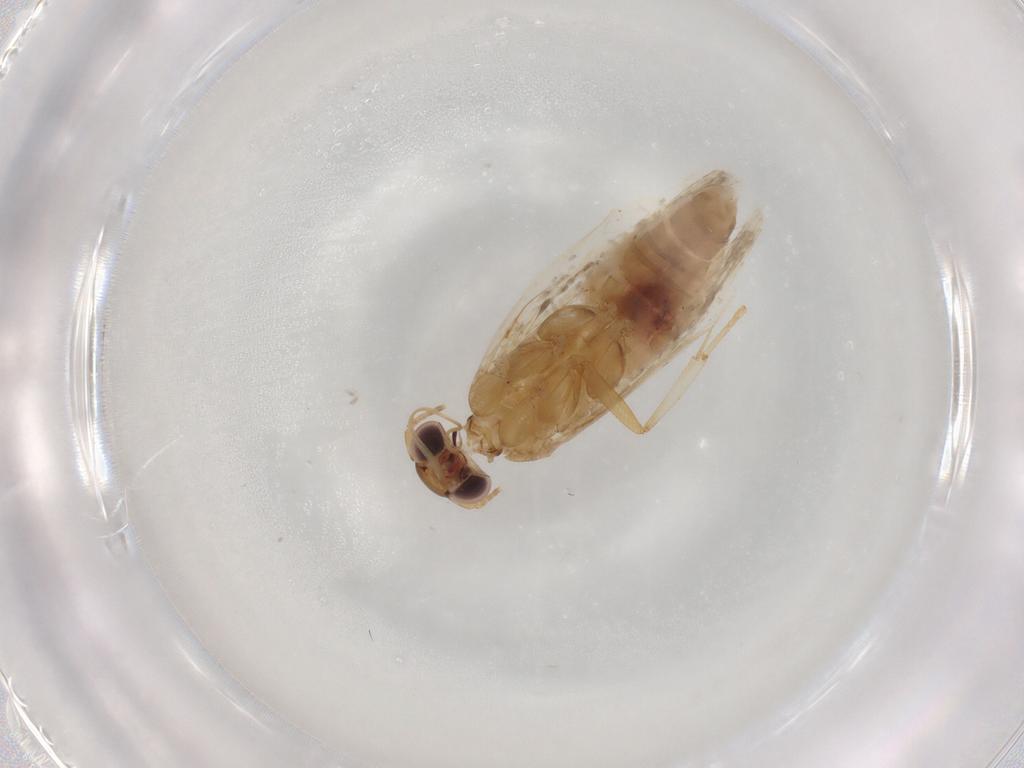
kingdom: Animalia
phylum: Arthropoda
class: Insecta
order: Lepidoptera
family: Gelechiidae
